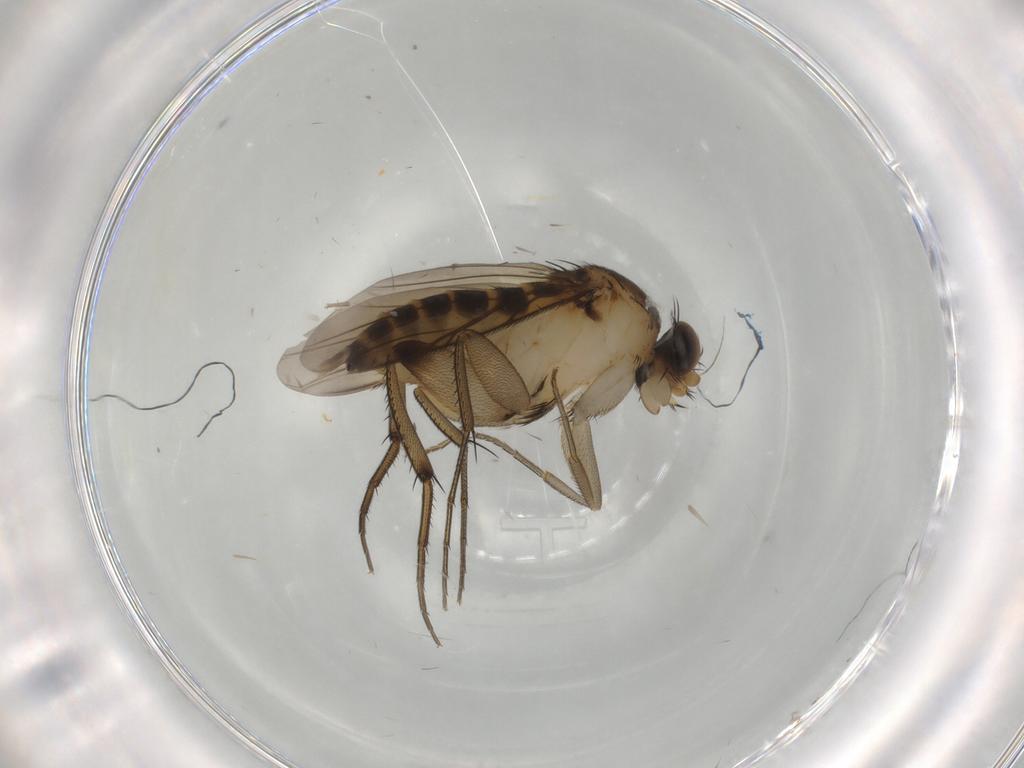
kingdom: Animalia
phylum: Arthropoda
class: Insecta
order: Diptera
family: Phoridae
